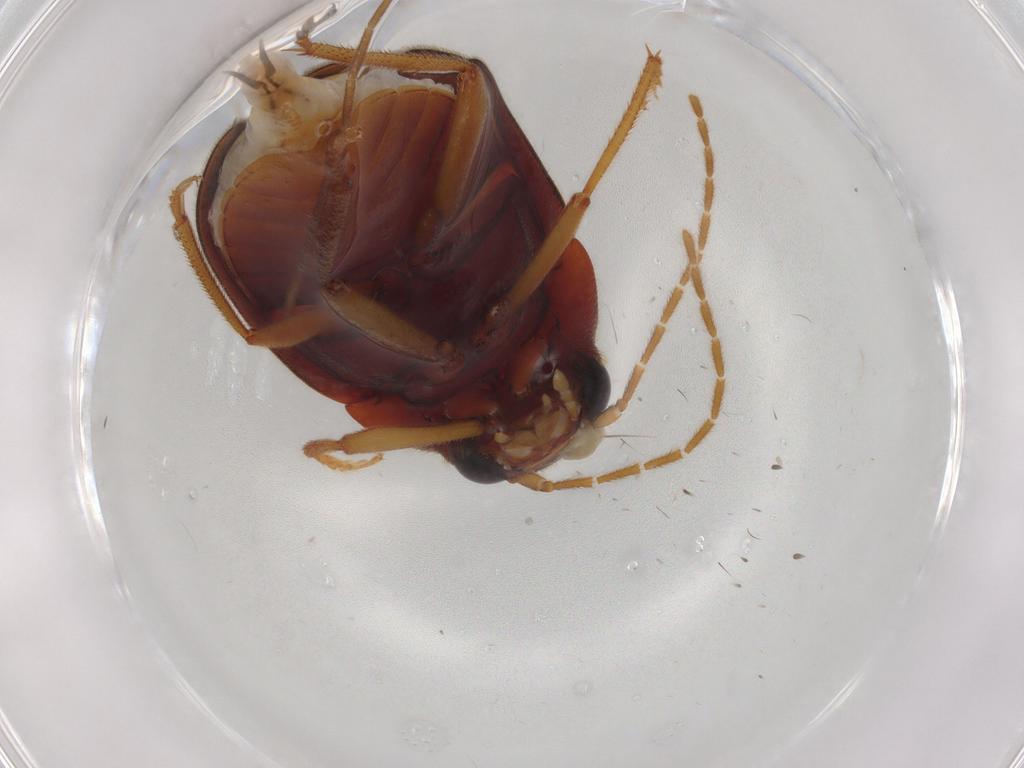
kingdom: Animalia
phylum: Arthropoda
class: Insecta
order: Coleoptera
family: Ptilodactylidae
